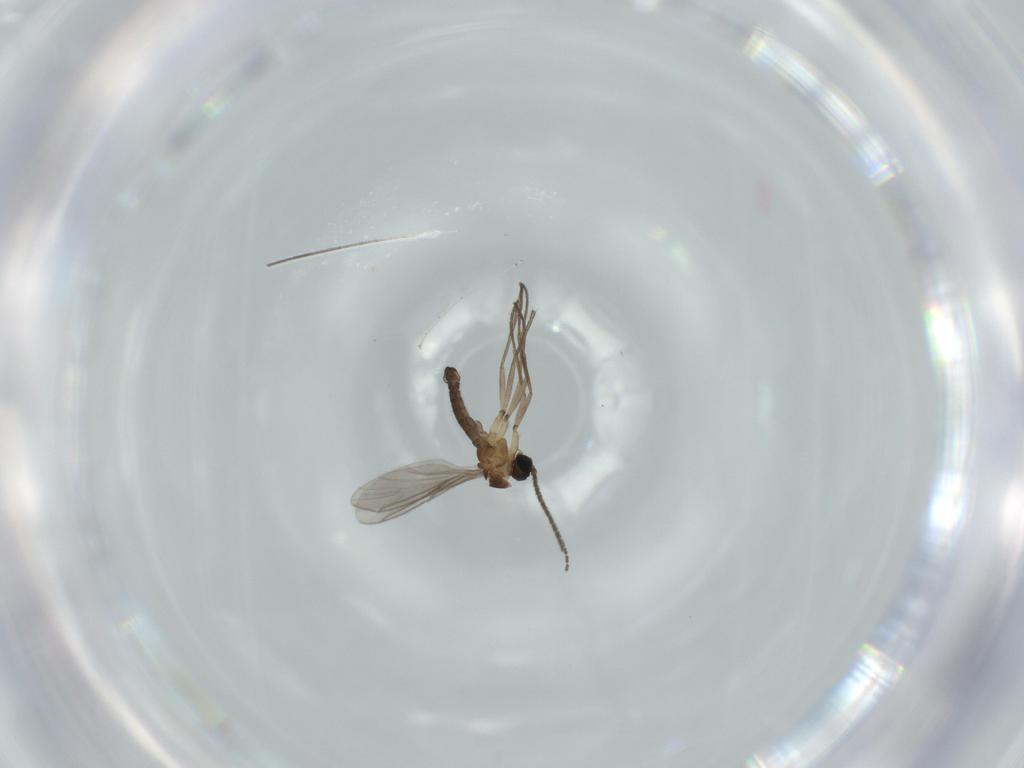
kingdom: Animalia
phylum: Arthropoda
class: Insecta
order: Diptera
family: Sciaridae
